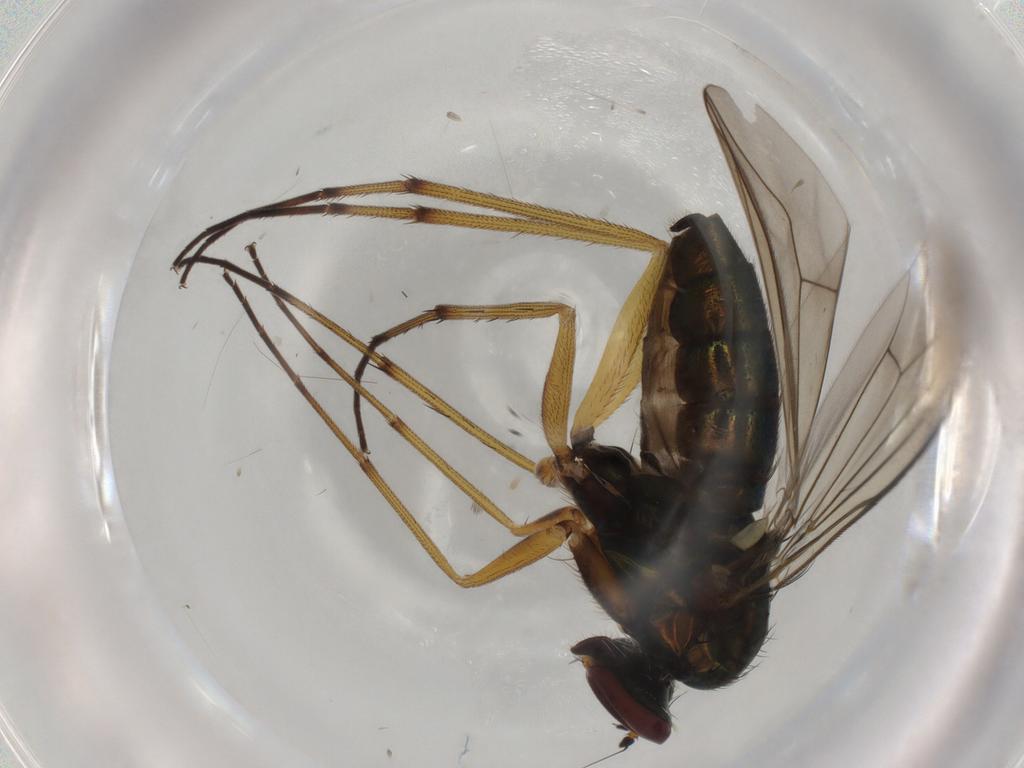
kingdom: Animalia
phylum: Arthropoda
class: Insecta
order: Diptera
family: Dolichopodidae
